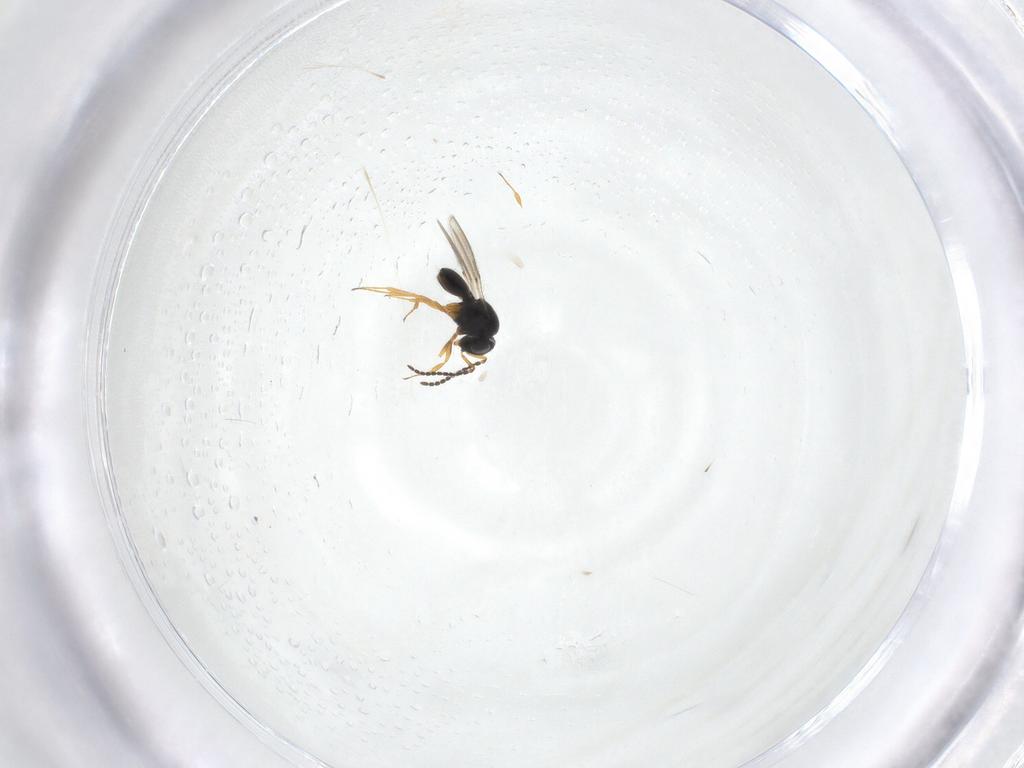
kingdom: Animalia
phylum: Arthropoda
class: Insecta
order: Hymenoptera
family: Scelionidae
